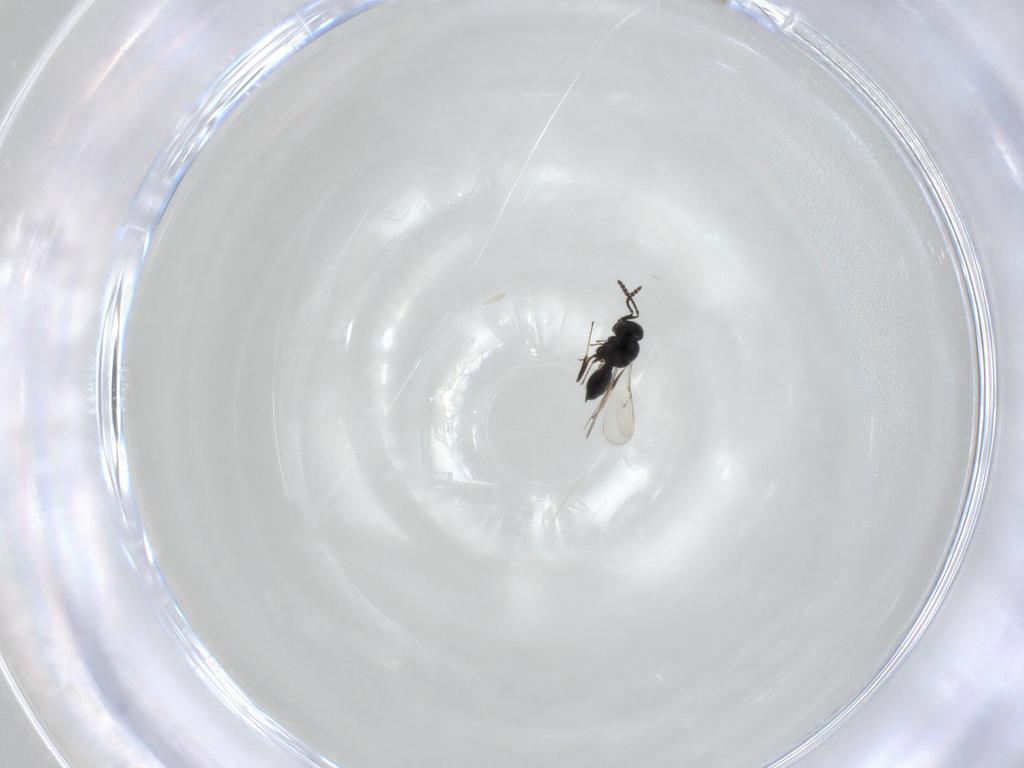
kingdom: Animalia
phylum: Arthropoda
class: Insecta
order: Hymenoptera
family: Scelionidae
